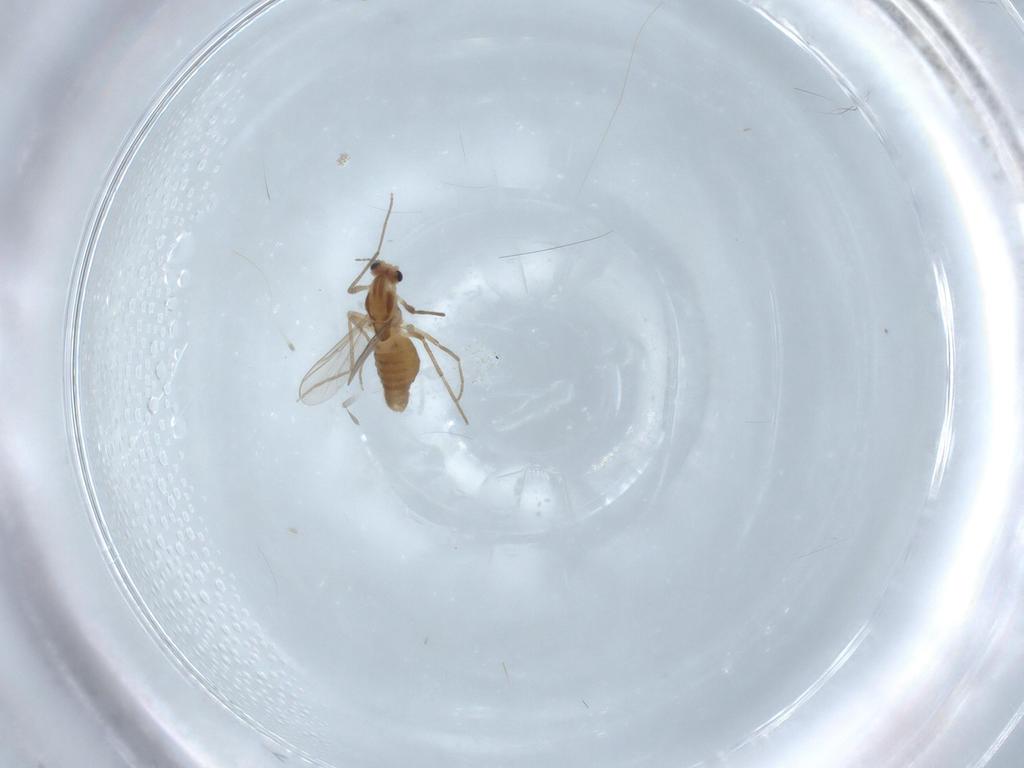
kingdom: Animalia
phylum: Arthropoda
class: Insecta
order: Diptera
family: Chironomidae
